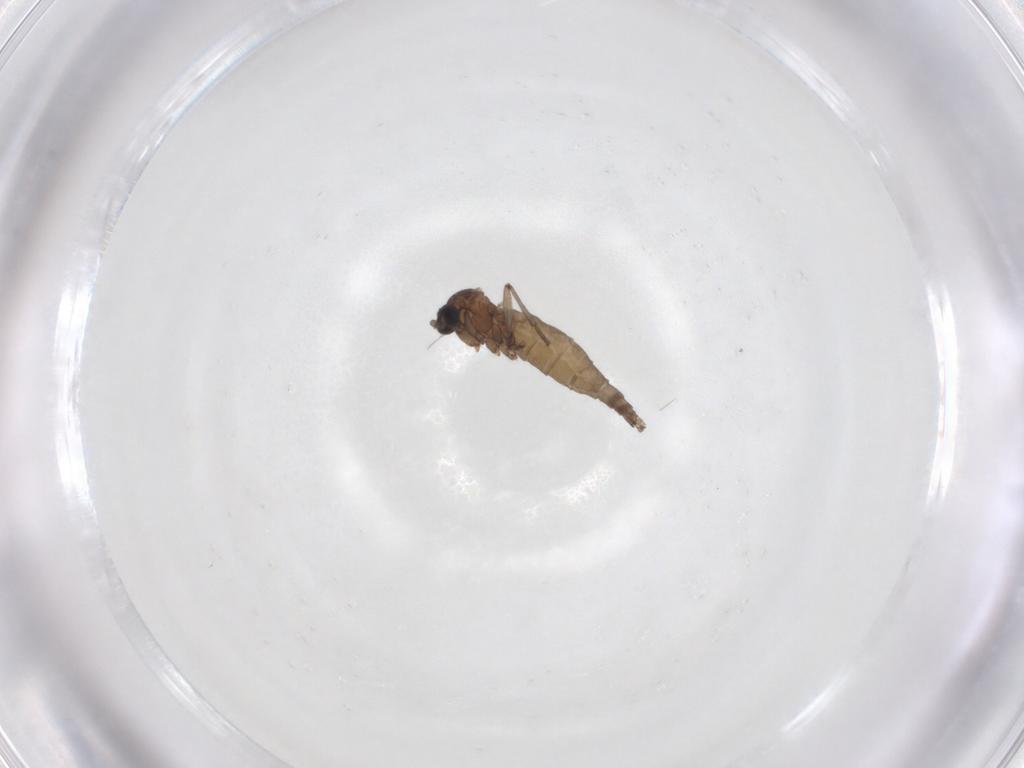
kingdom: Animalia
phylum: Arthropoda
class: Insecta
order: Diptera
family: Sciaridae
